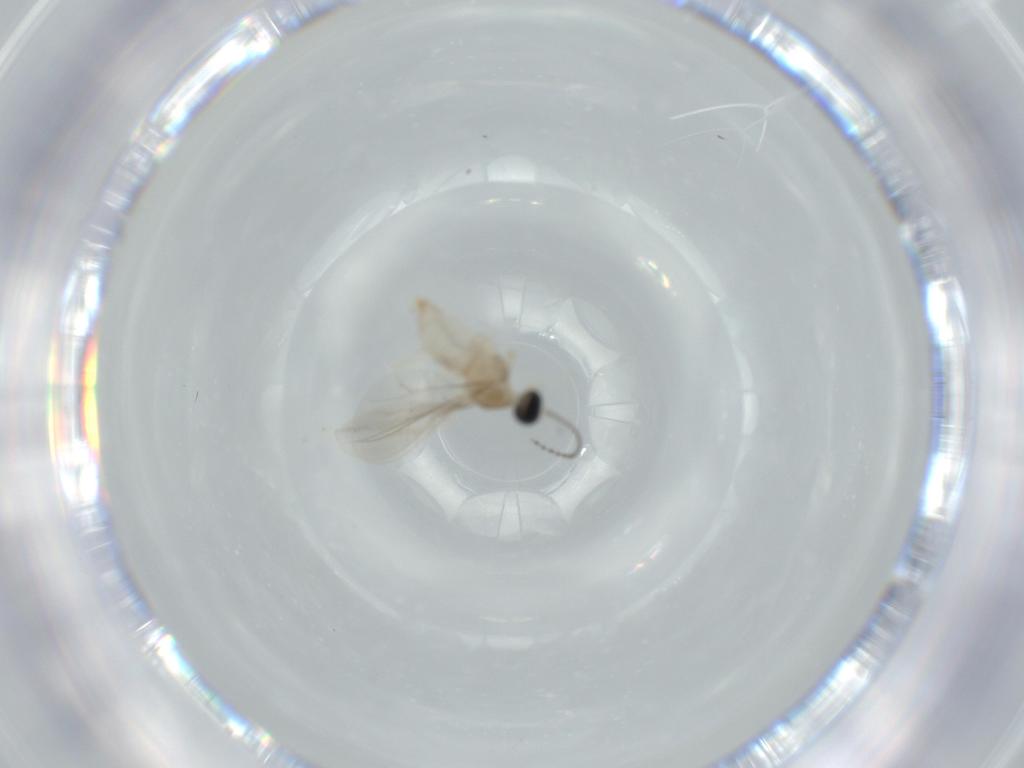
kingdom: Animalia
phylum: Arthropoda
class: Insecta
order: Diptera
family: Cecidomyiidae
